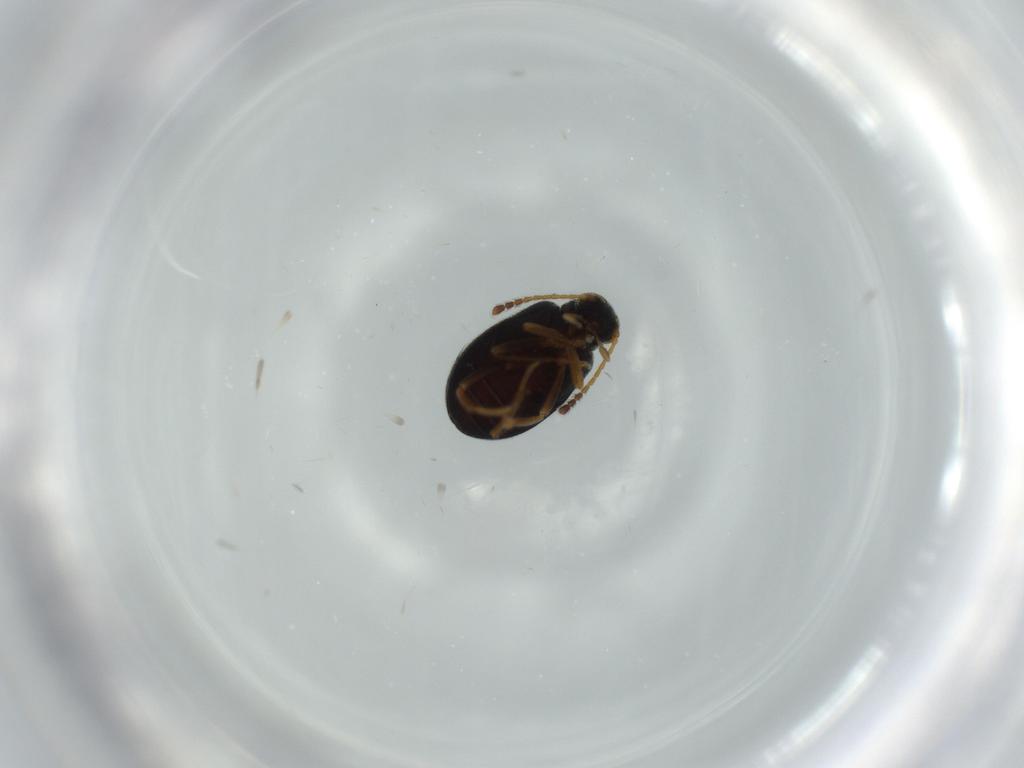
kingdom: Animalia
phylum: Arthropoda
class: Insecta
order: Coleoptera
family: Aderidae
